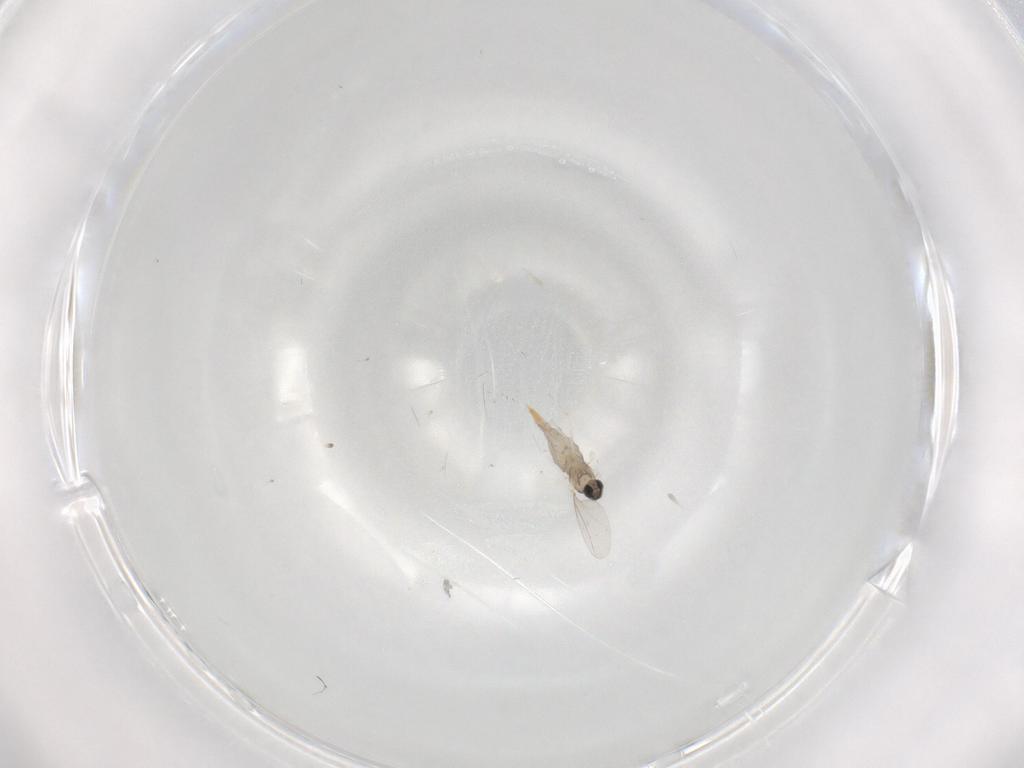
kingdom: Animalia
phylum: Arthropoda
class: Insecta
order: Diptera
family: Cecidomyiidae
